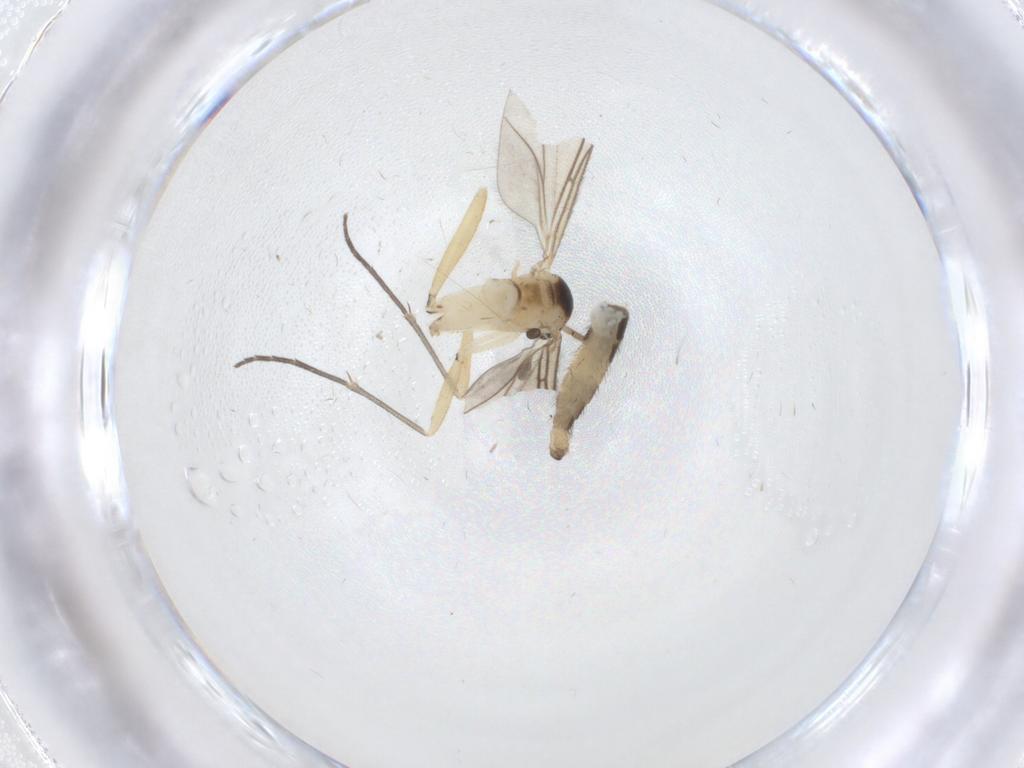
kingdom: Animalia
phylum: Arthropoda
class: Insecta
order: Diptera
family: Sciaridae
